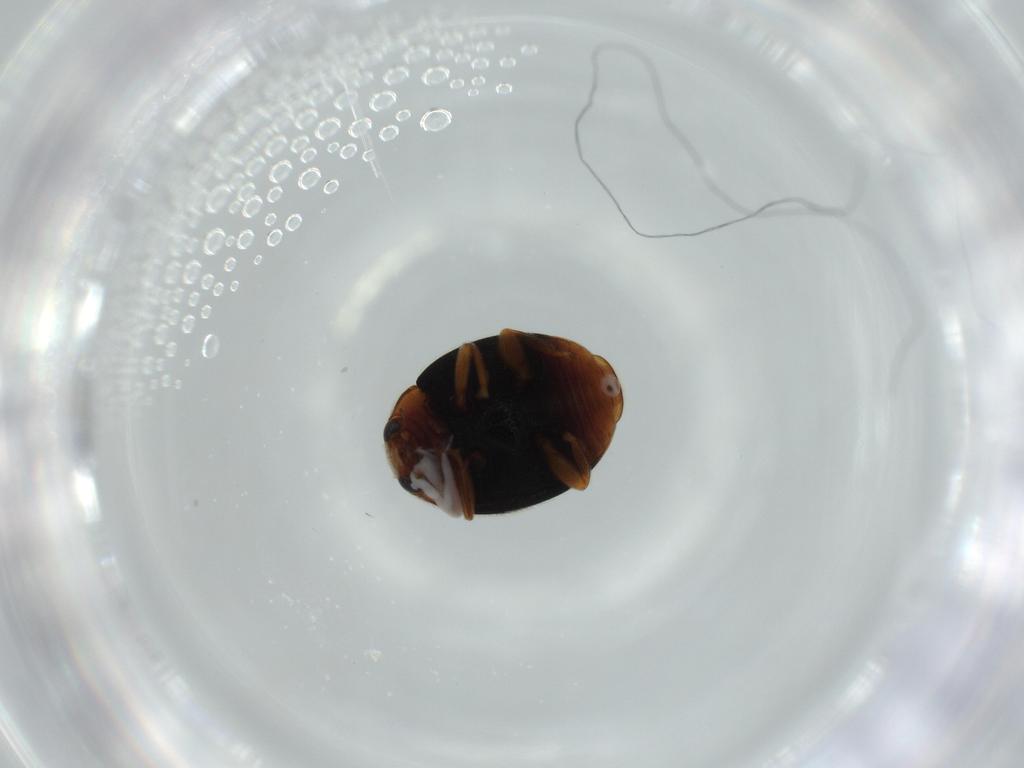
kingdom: Animalia
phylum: Arthropoda
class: Insecta
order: Coleoptera
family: Coccinellidae
